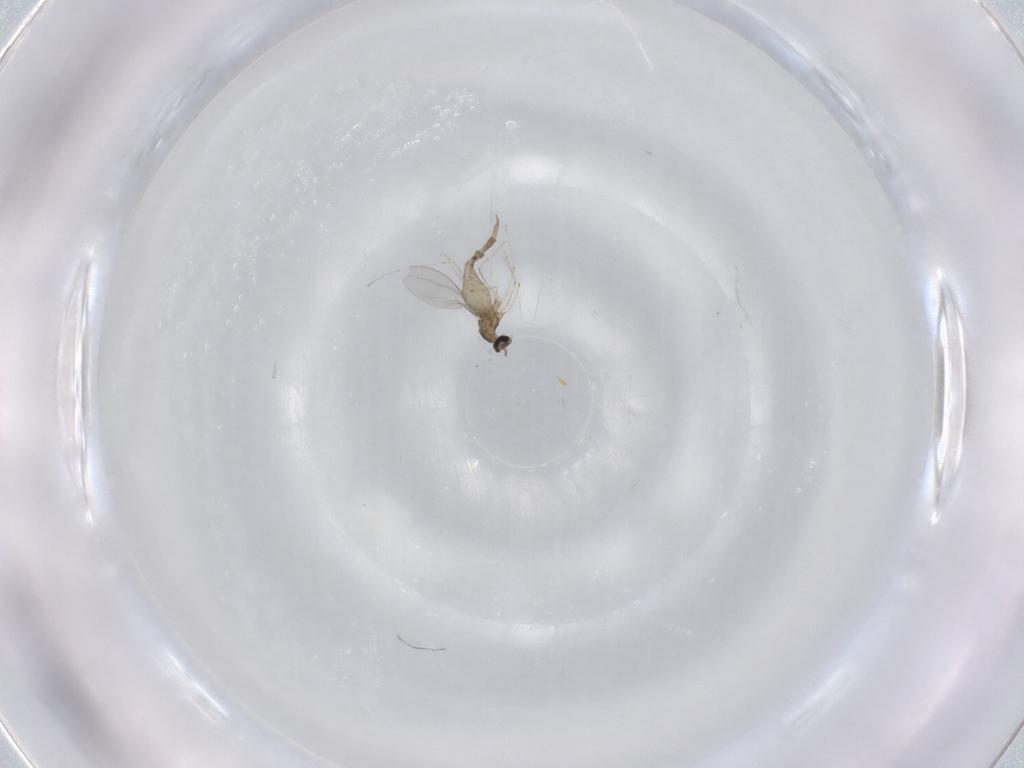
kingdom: Animalia
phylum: Arthropoda
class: Insecta
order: Diptera
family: Cecidomyiidae
